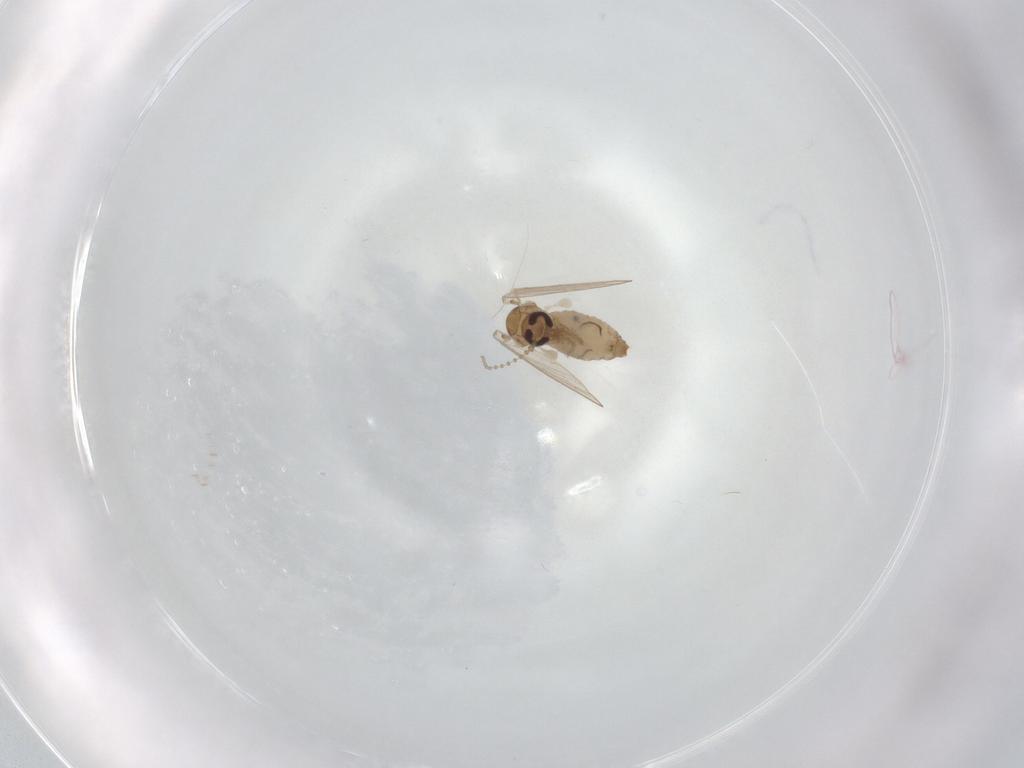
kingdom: Animalia
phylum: Arthropoda
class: Insecta
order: Diptera
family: Psychodidae
